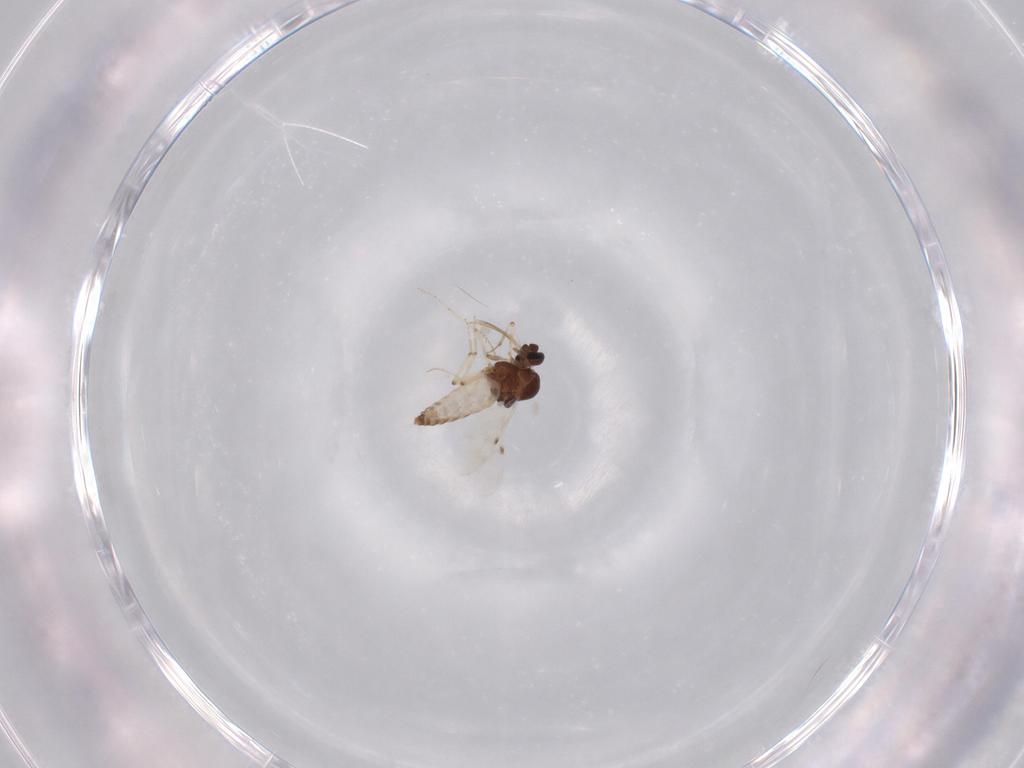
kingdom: Animalia
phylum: Arthropoda
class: Insecta
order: Diptera
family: Ceratopogonidae
